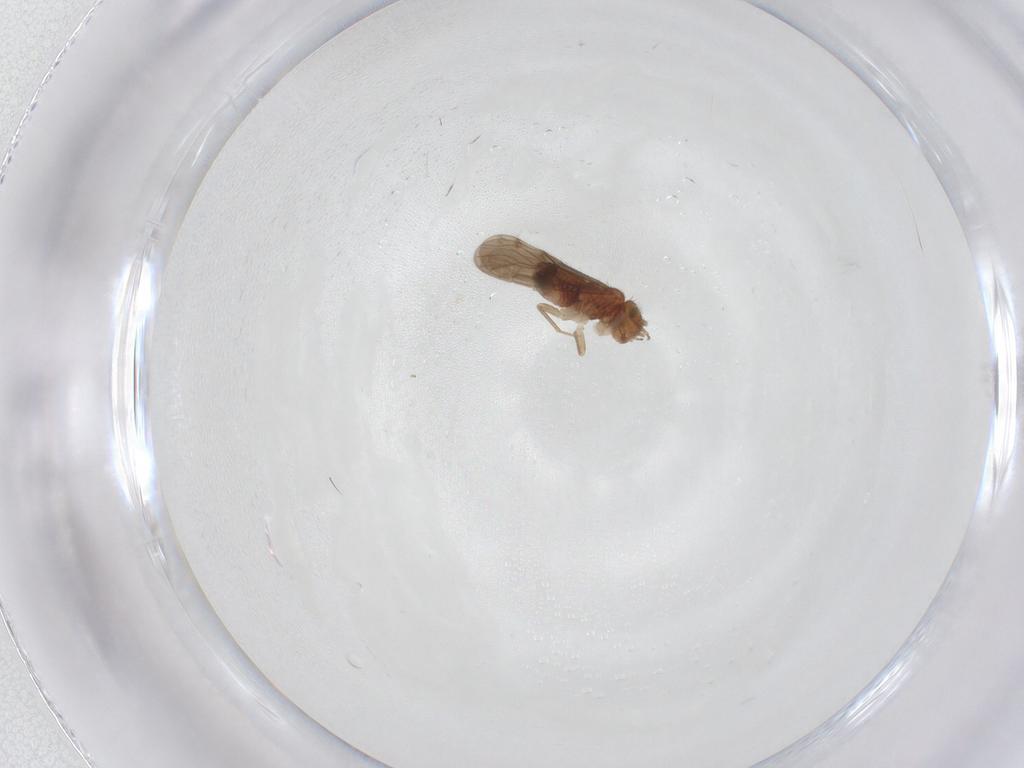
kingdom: Animalia
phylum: Arthropoda
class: Insecta
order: Psocodea
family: Ectopsocidae
